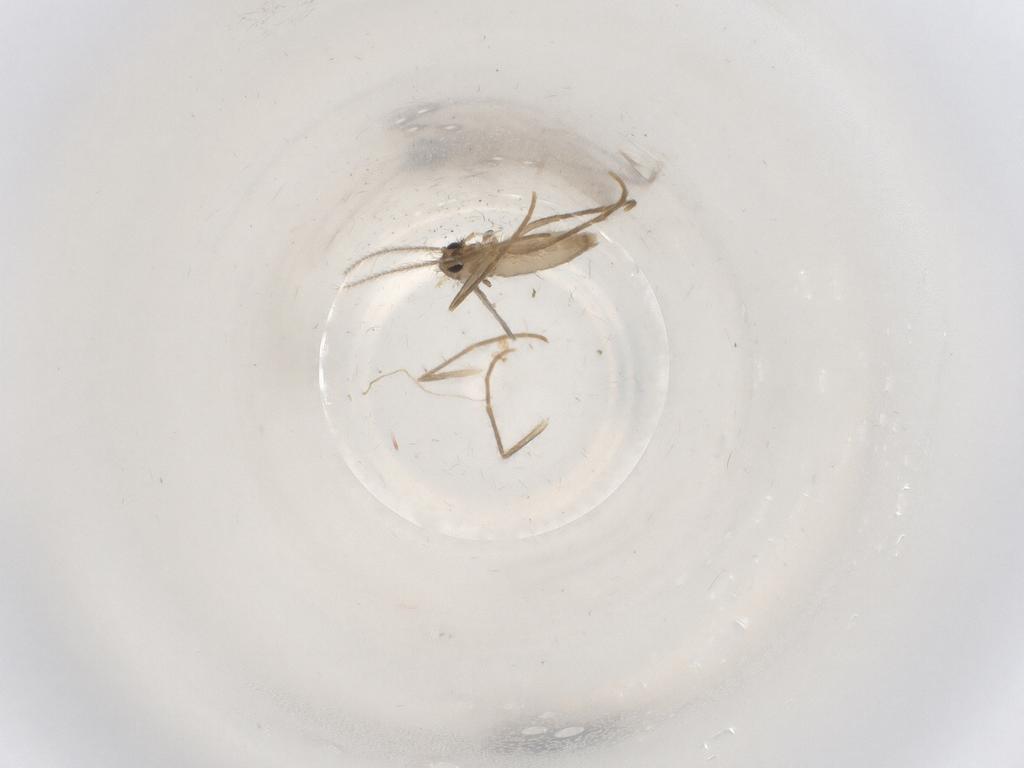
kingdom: Animalia
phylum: Arthropoda
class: Insecta
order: Diptera
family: Psychodidae
